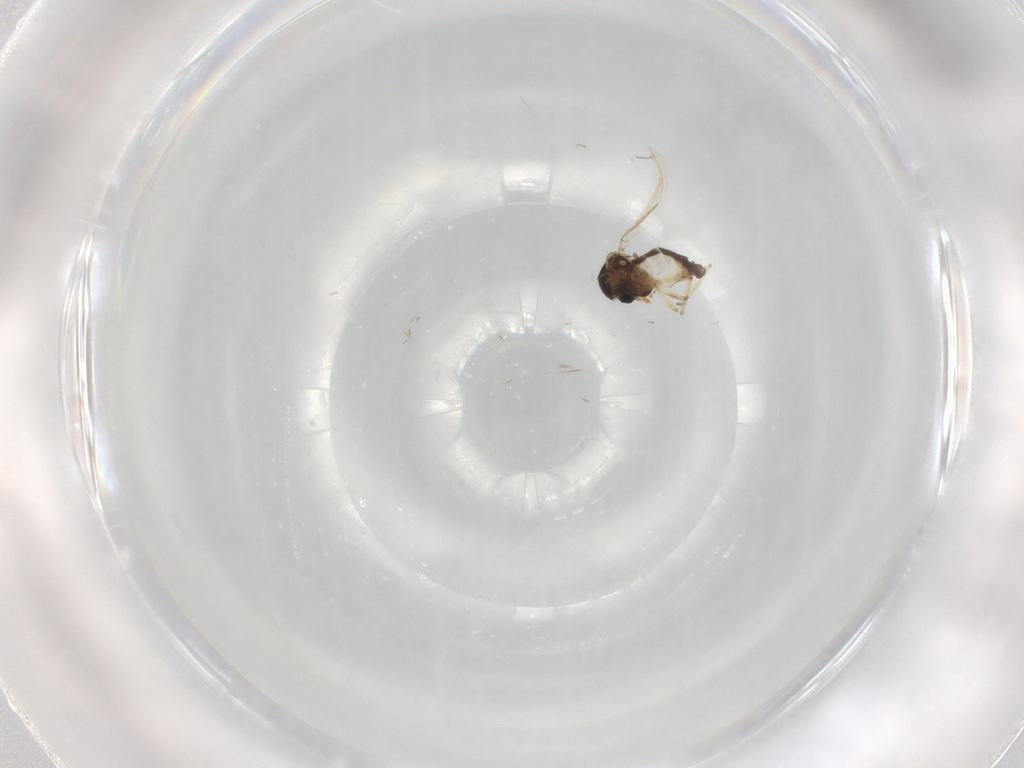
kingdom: Animalia
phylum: Arthropoda
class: Insecta
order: Diptera
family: Ceratopogonidae
